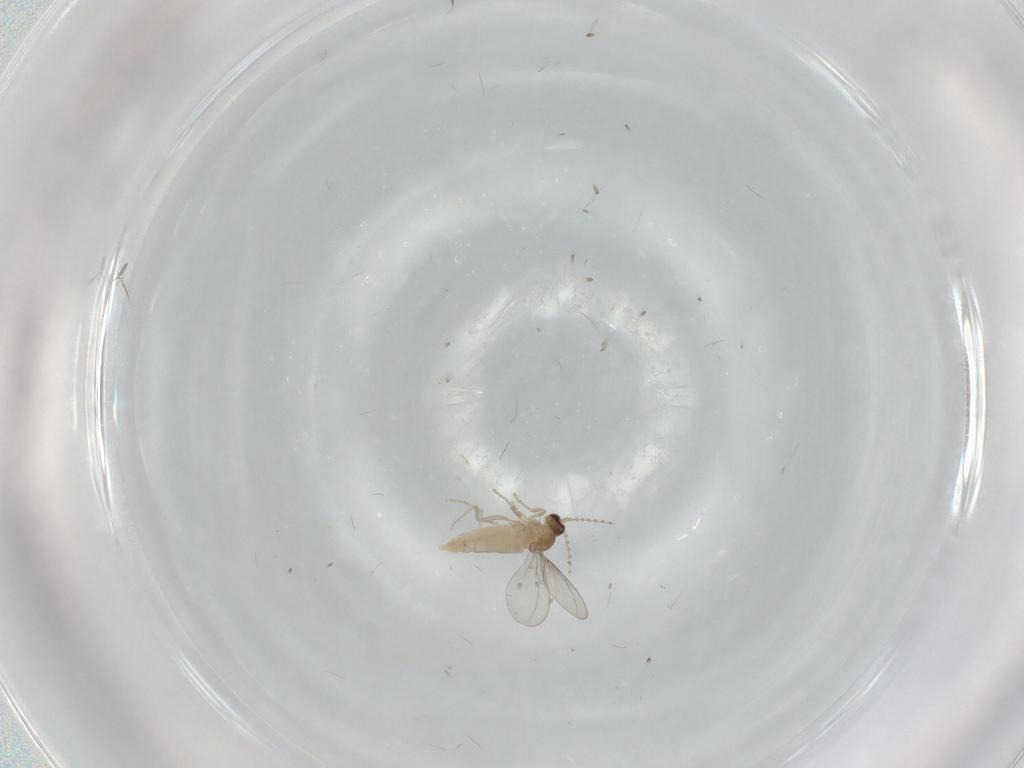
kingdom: Animalia
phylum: Arthropoda
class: Insecta
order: Diptera
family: Cecidomyiidae
